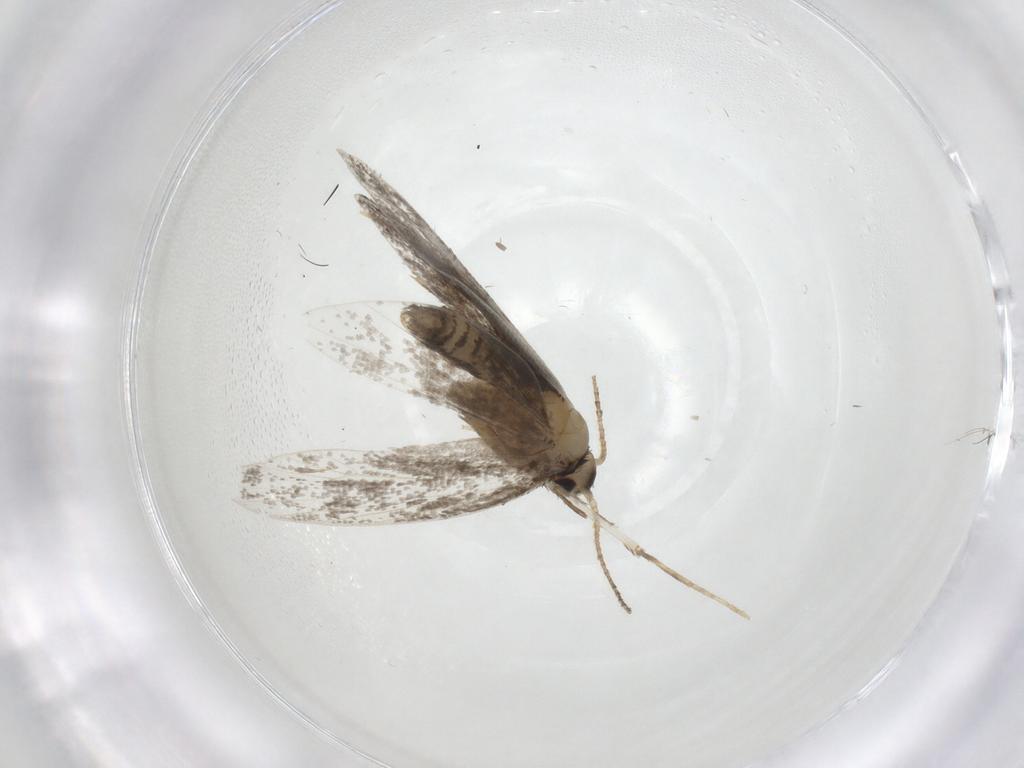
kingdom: Animalia
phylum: Arthropoda
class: Insecta
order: Lepidoptera
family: Psychidae
